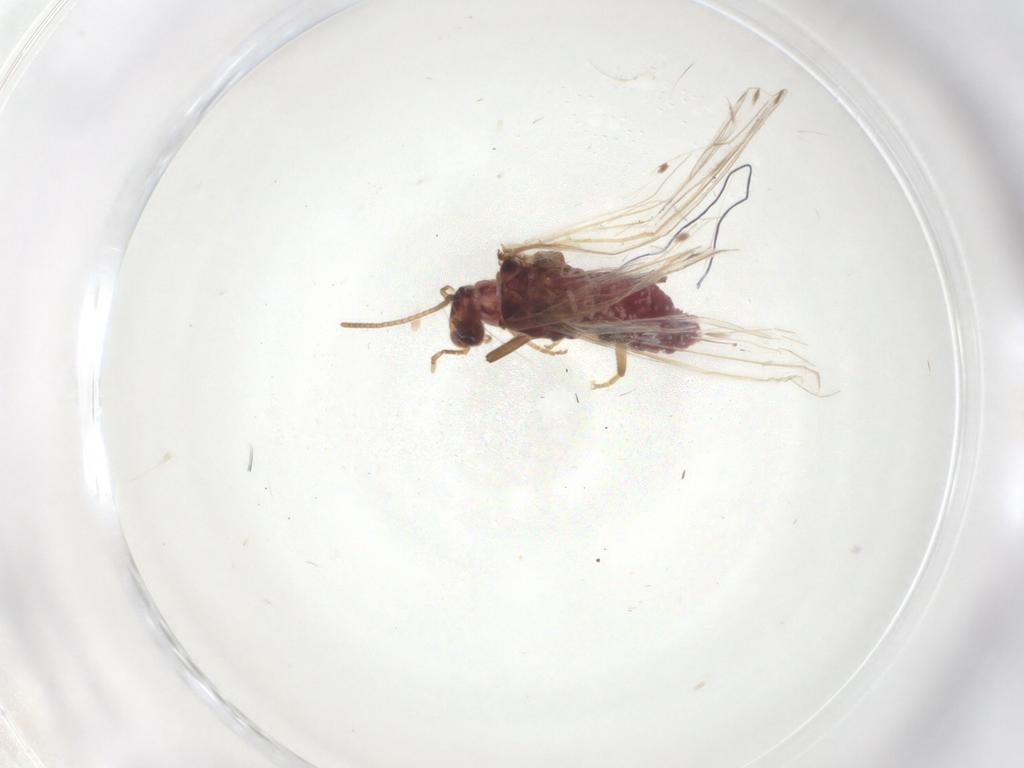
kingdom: Animalia
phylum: Arthropoda
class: Insecta
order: Neuroptera
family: Coniopterygidae
